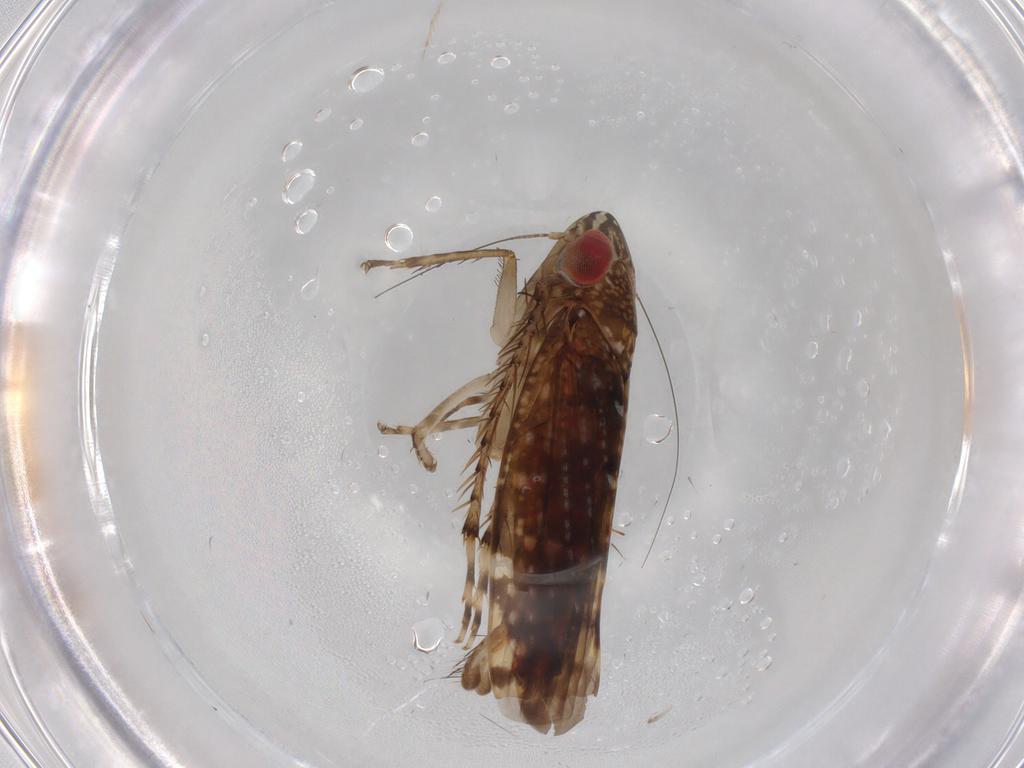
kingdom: Animalia
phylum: Arthropoda
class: Insecta
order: Hemiptera
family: Cicadellidae
